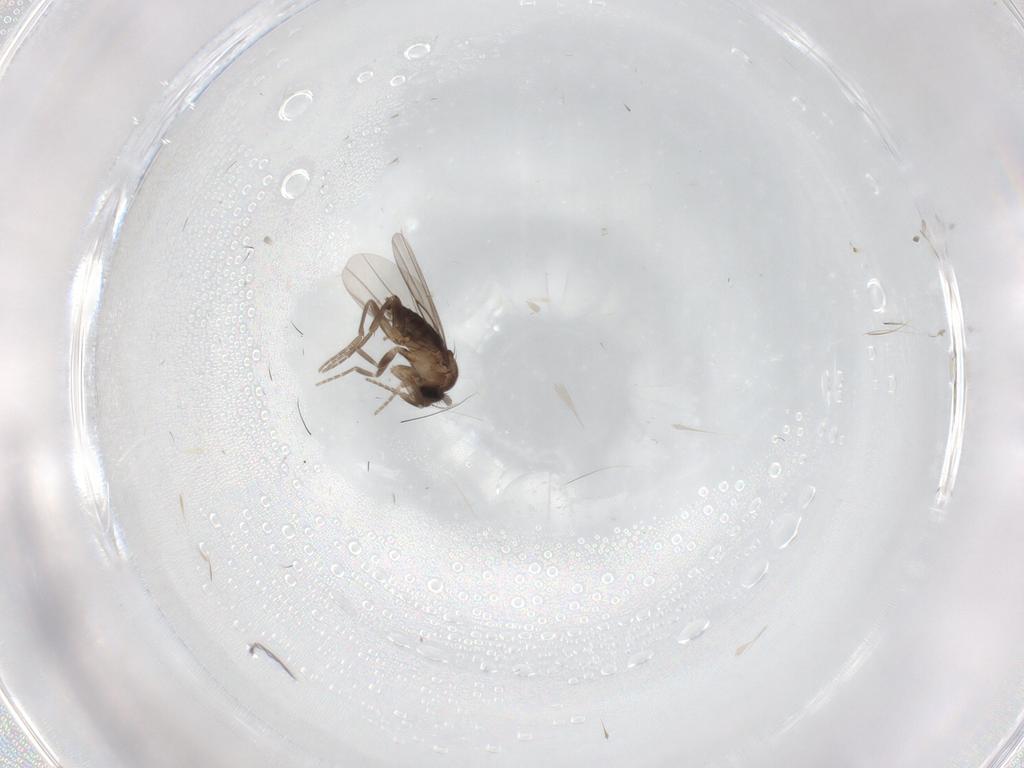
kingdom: Animalia
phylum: Arthropoda
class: Insecta
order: Diptera
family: Phoridae
